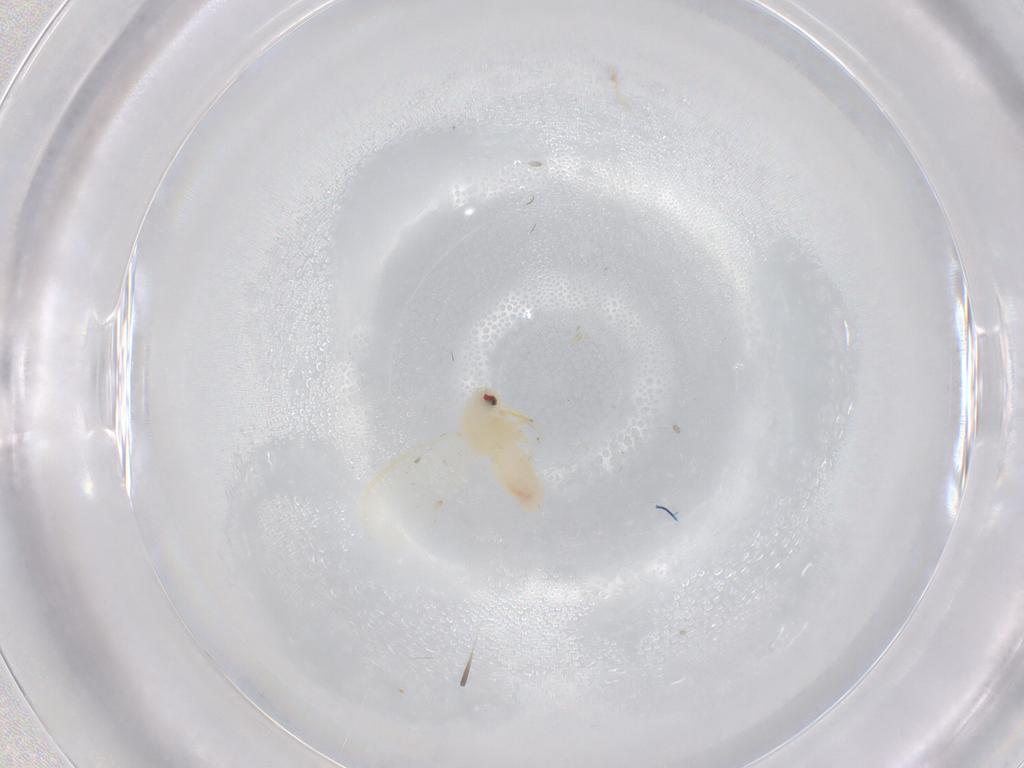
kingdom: Animalia
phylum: Arthropoda
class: Insecta
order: Hemiptera
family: Aleyrodidae
